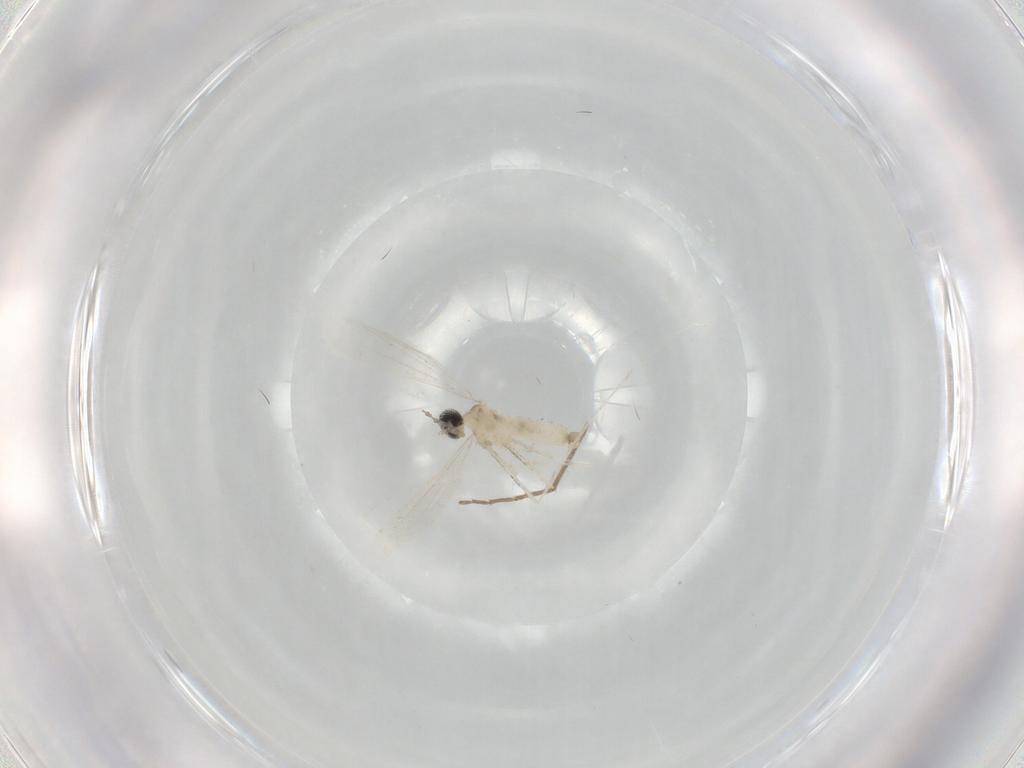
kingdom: Animalia
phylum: Arthropoda
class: Insecta
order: Diptera
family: Cecidomyiidae
